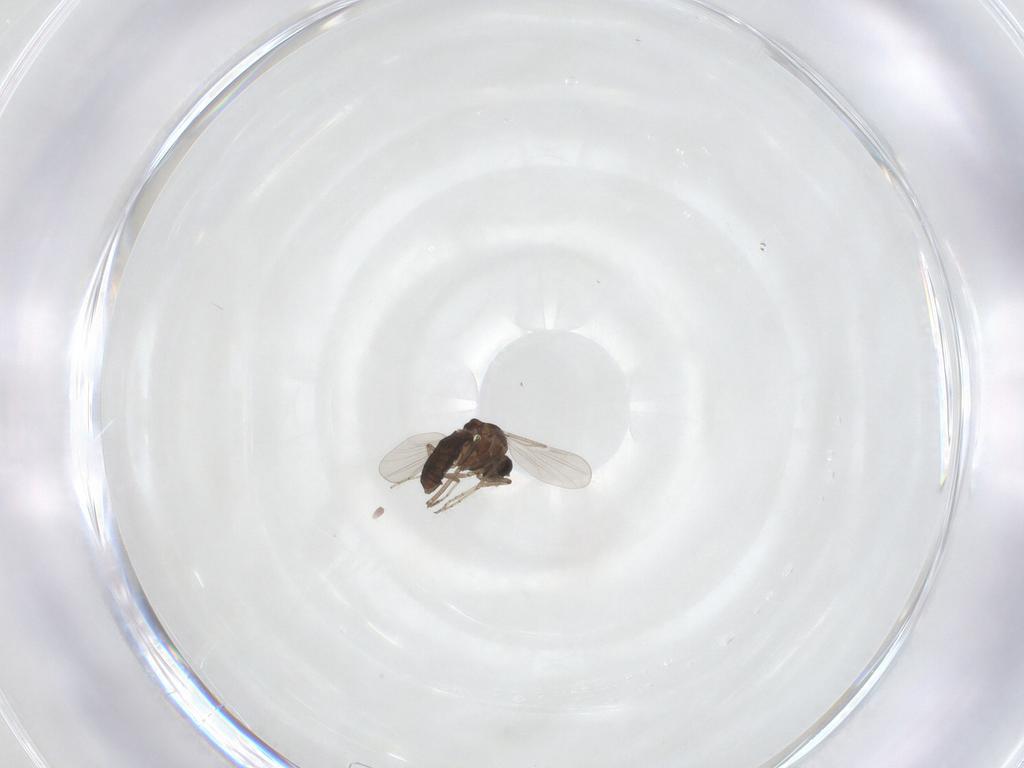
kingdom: Animalia
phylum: Arthropoda
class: Insecta
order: Diptera
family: Ceratopogonidae
